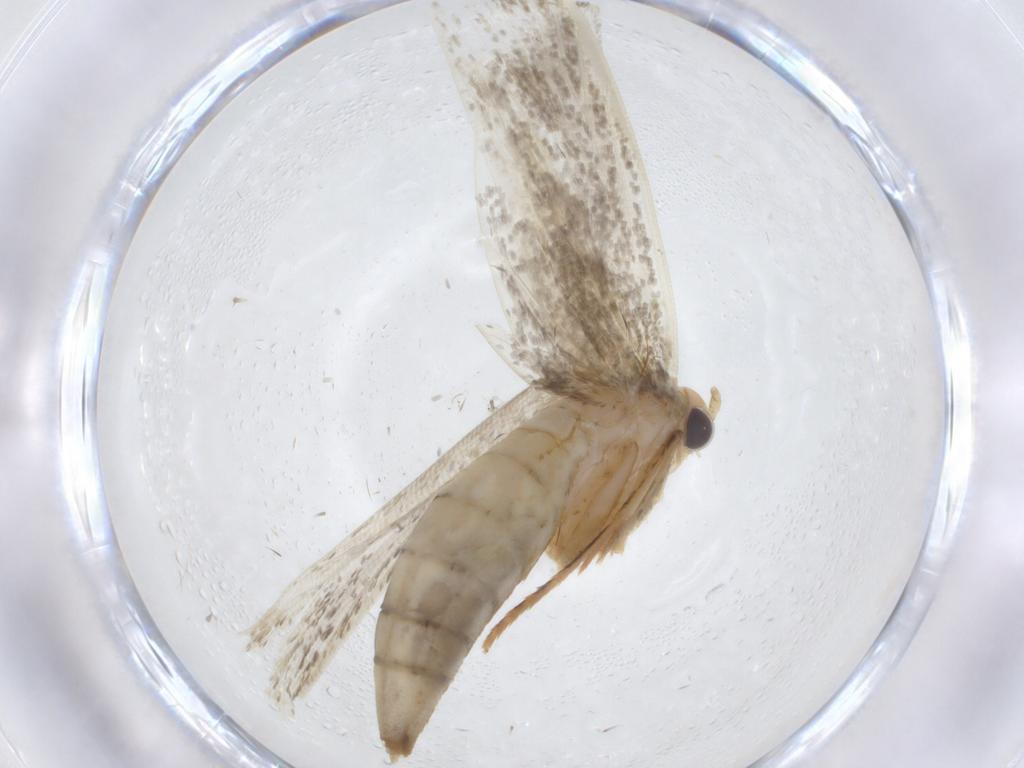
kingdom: Animalia
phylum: Arthropoda
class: Insecta
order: Lepidoptera
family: Tineidae
